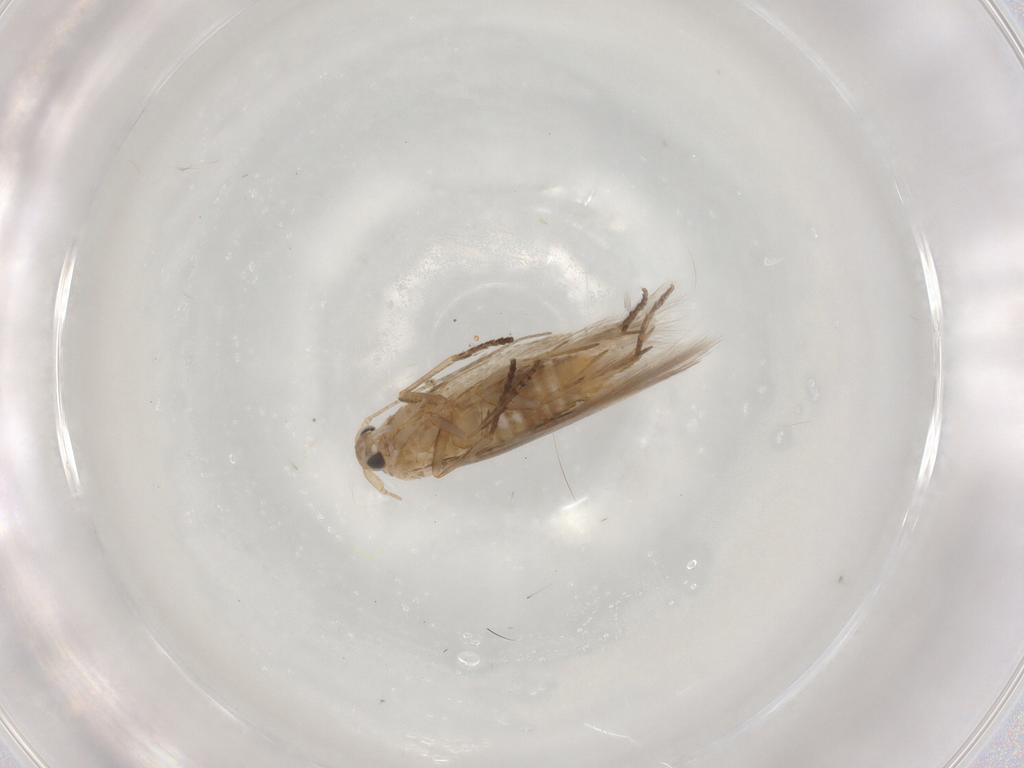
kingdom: Animalia
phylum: Arthropoda
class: Insecta
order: Lepidoptera
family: Bucculatricidae
